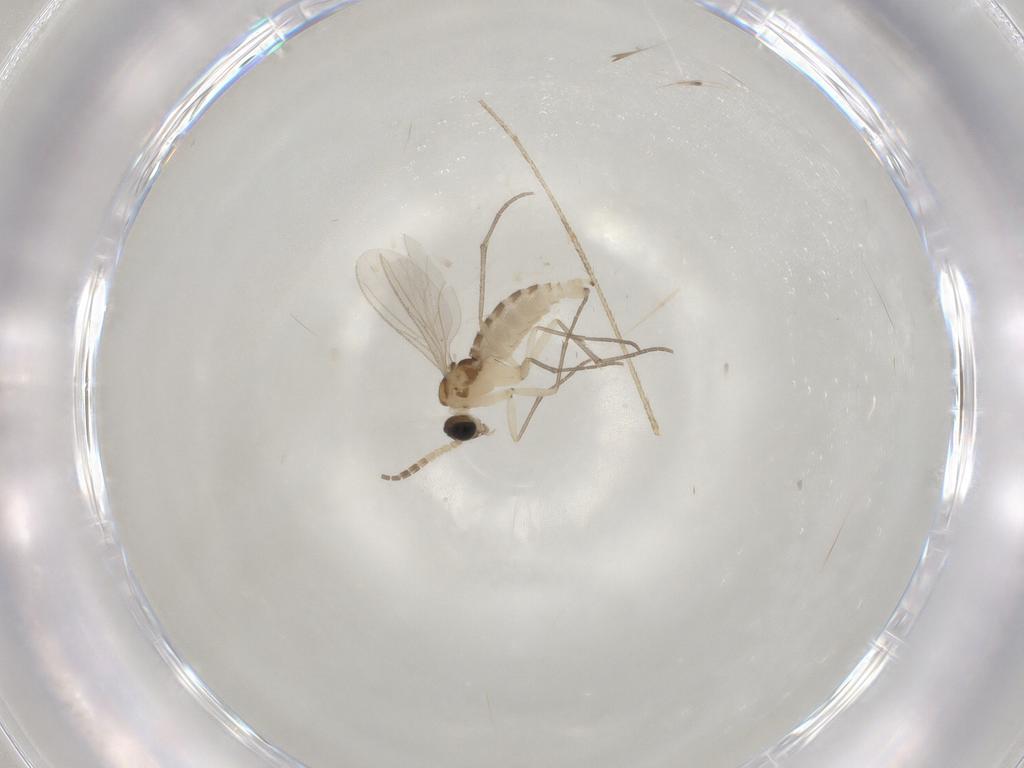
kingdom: Animalia
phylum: Arthropoda
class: Insecta
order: Diptera
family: Culicidae
